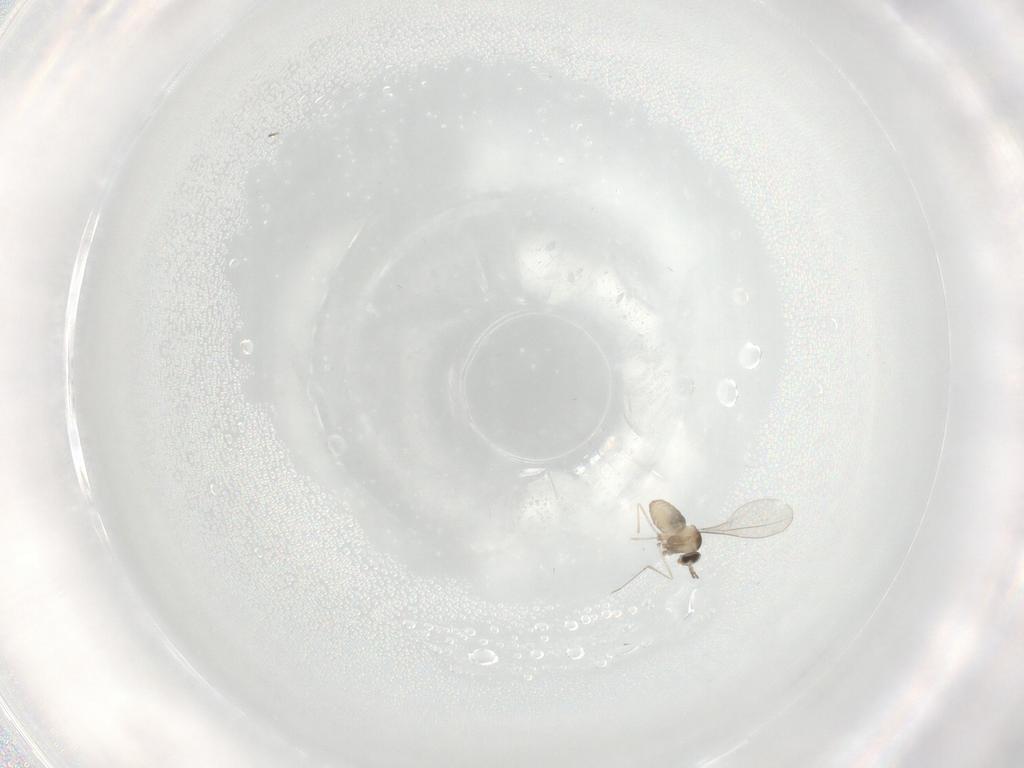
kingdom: Animalia
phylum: Arthropoda
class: Insecta
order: Diptera
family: Cecidomyiidae
